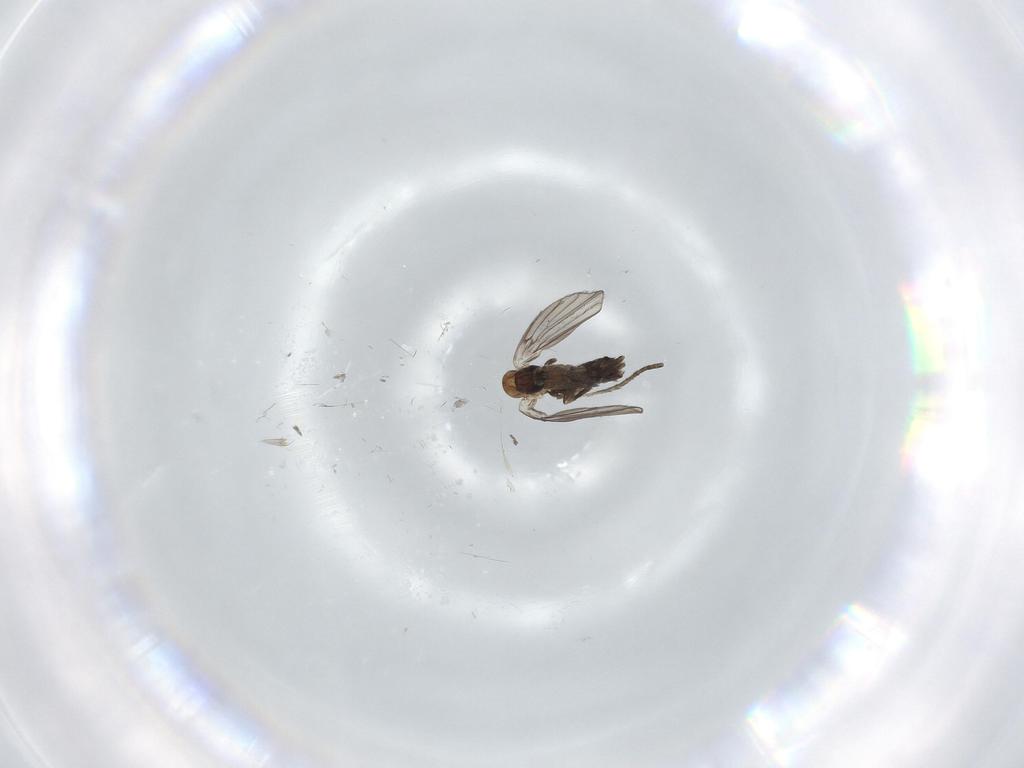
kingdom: Animalia
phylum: Arthropoda
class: Insecta
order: Diptera
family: Psychodidae
